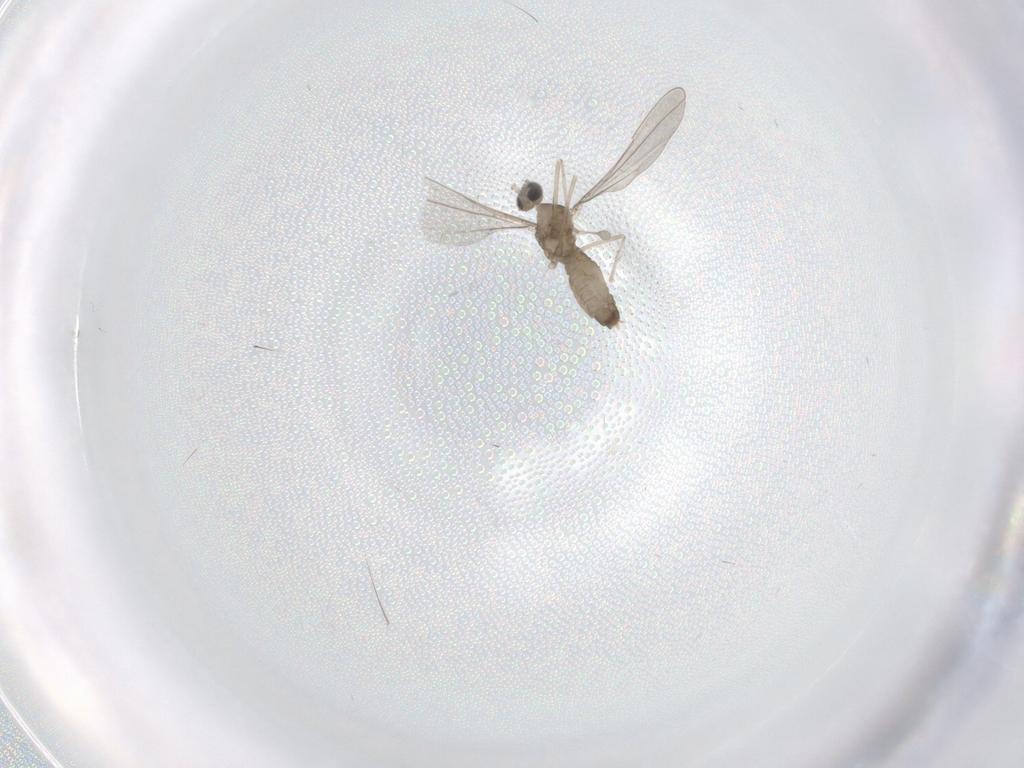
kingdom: Animalia
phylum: Arthropoda
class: Insecta
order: Diptera
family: Cecidomyiidae
